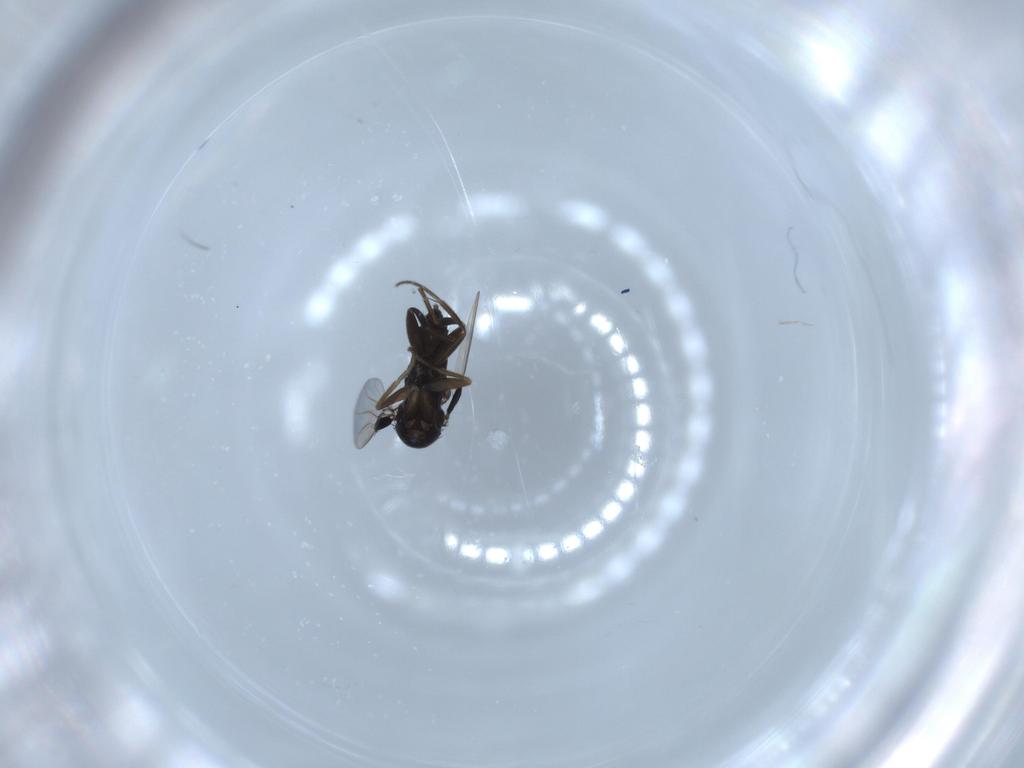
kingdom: Animalia
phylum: Arthropoda
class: Insecta
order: Diptera
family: Phoridae
